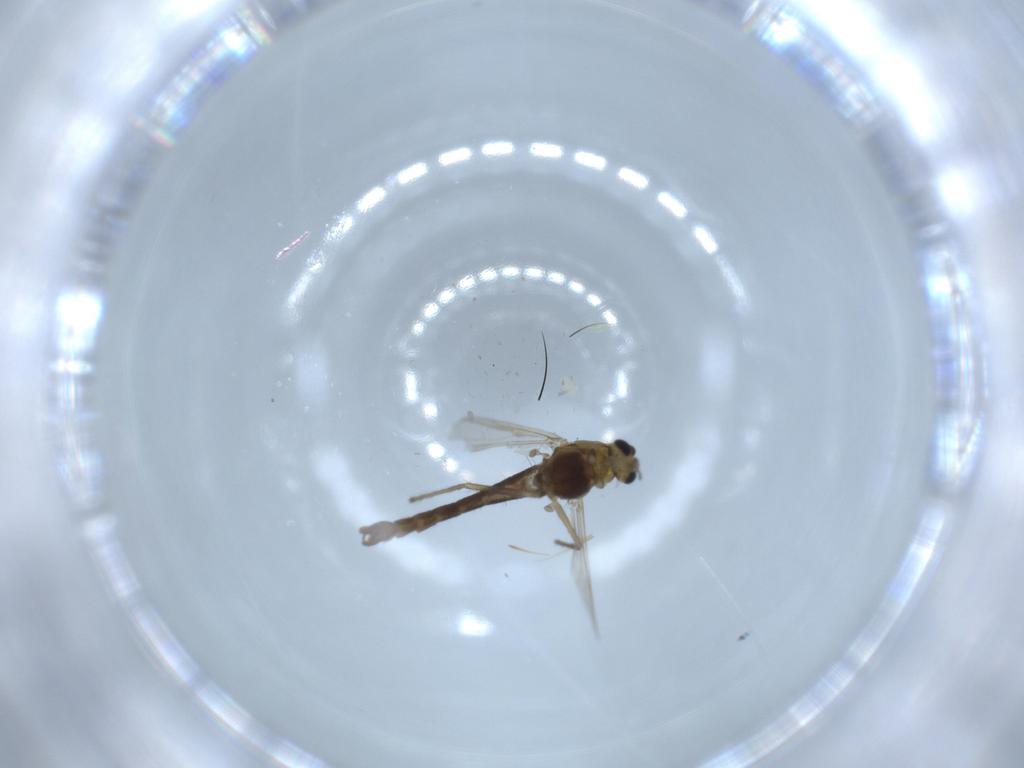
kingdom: Animalia
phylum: Arthropoda
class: Insecta
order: Diptera
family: Chironomidae
